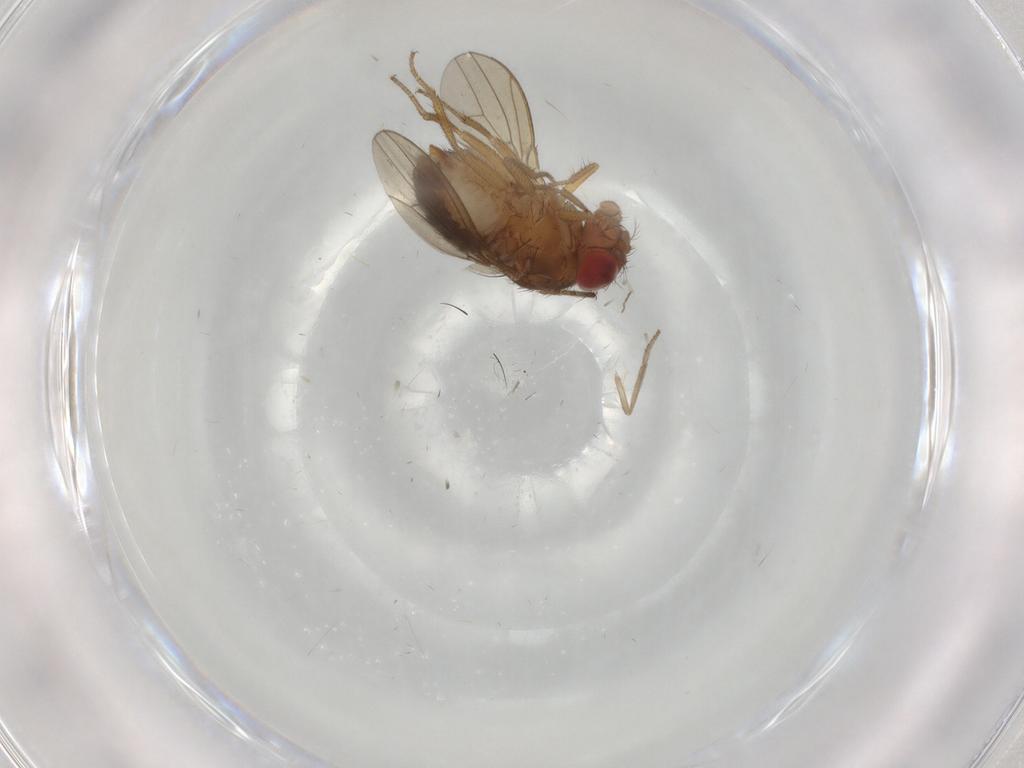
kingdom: Animalia
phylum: Arthropoda
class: Insecta
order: Diptera
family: Drosophilidae
